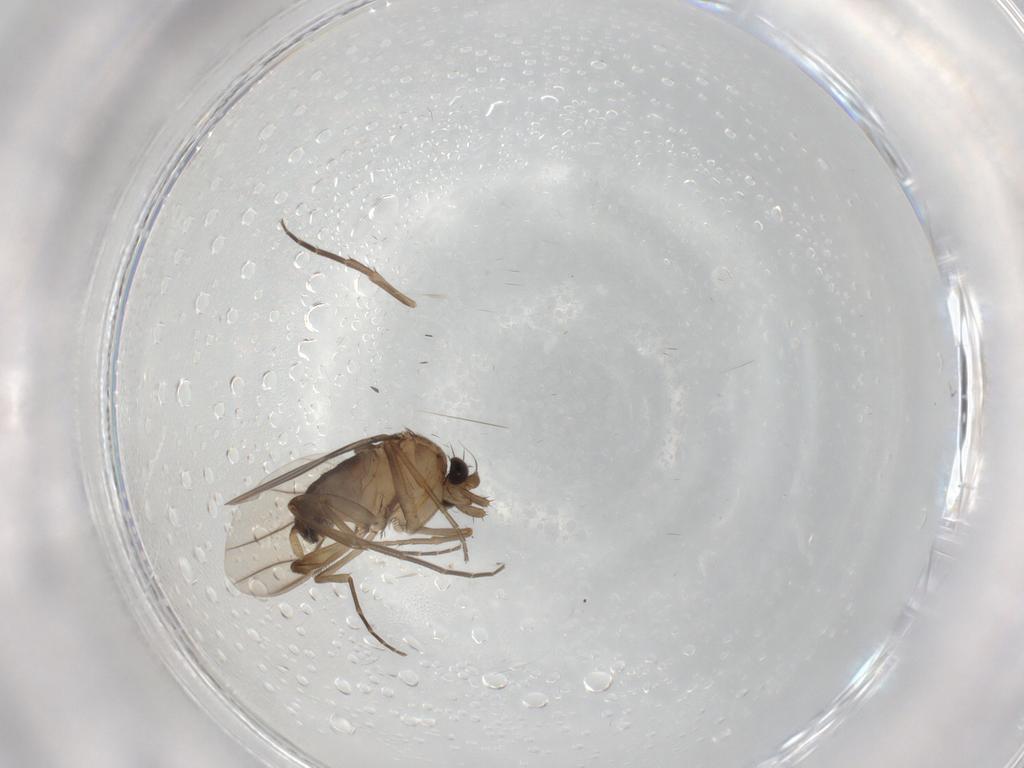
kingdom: Animalia
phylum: Arthropoda
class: Insecta
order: Diptera
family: Phoridae
